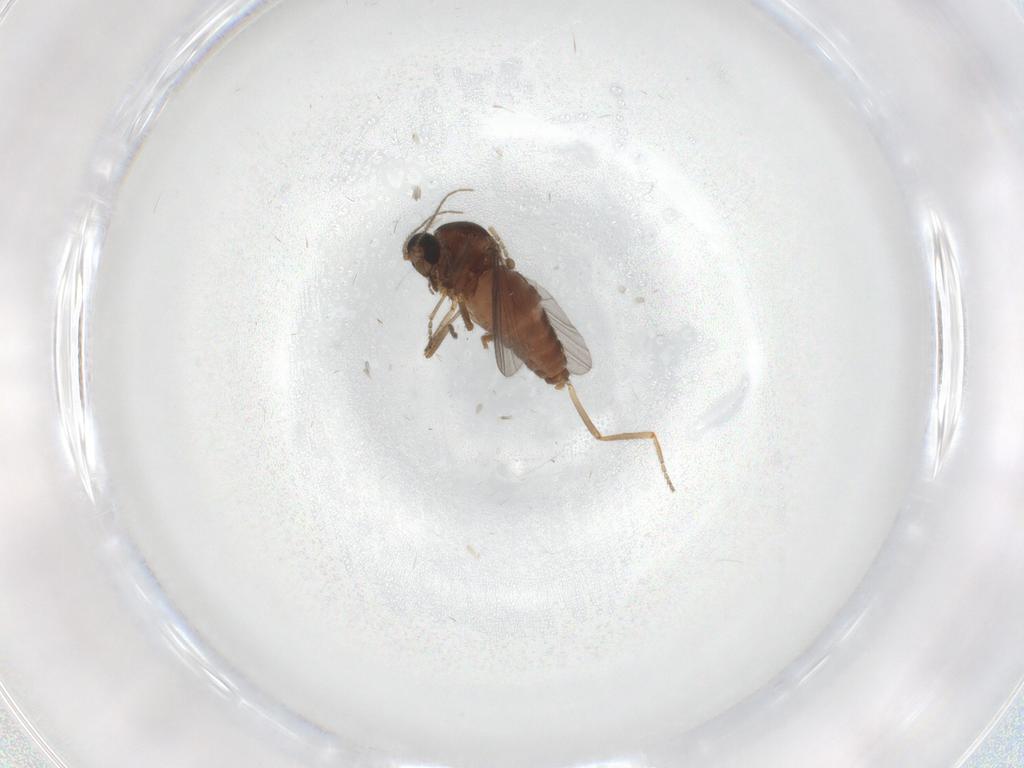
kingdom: Animalia
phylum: Arthropoda
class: Insecta
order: Diptera
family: Ceratopogonidae
